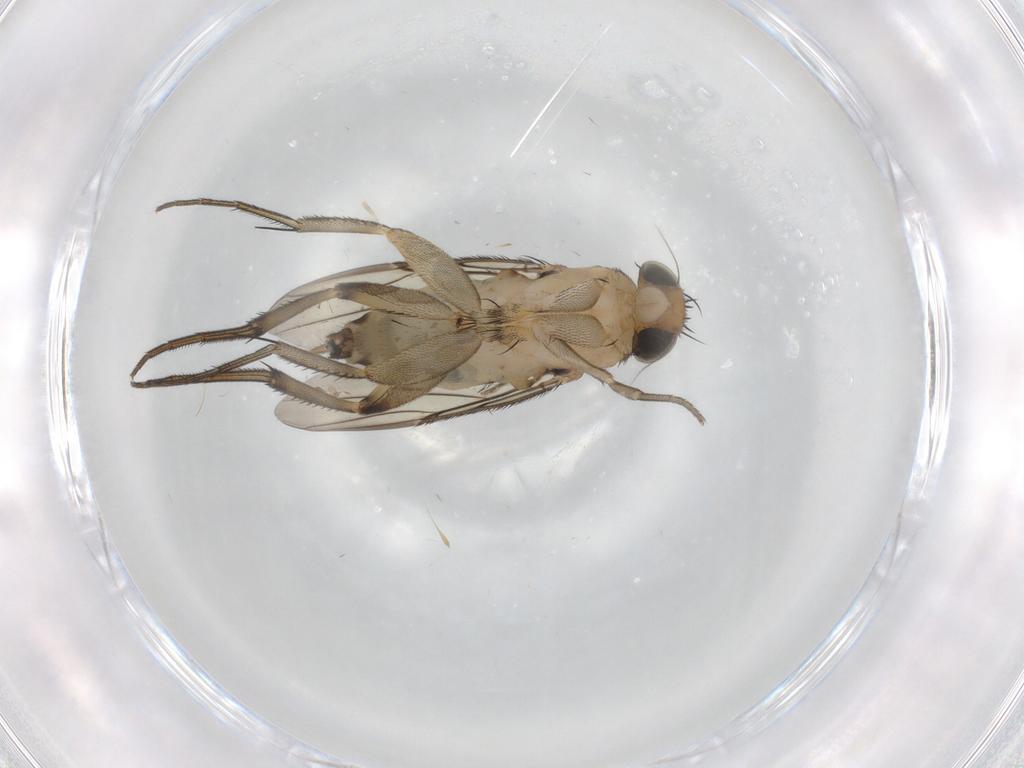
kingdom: Animalia
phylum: Arthropoda
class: Insecta
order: Diptera
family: Phoridae
